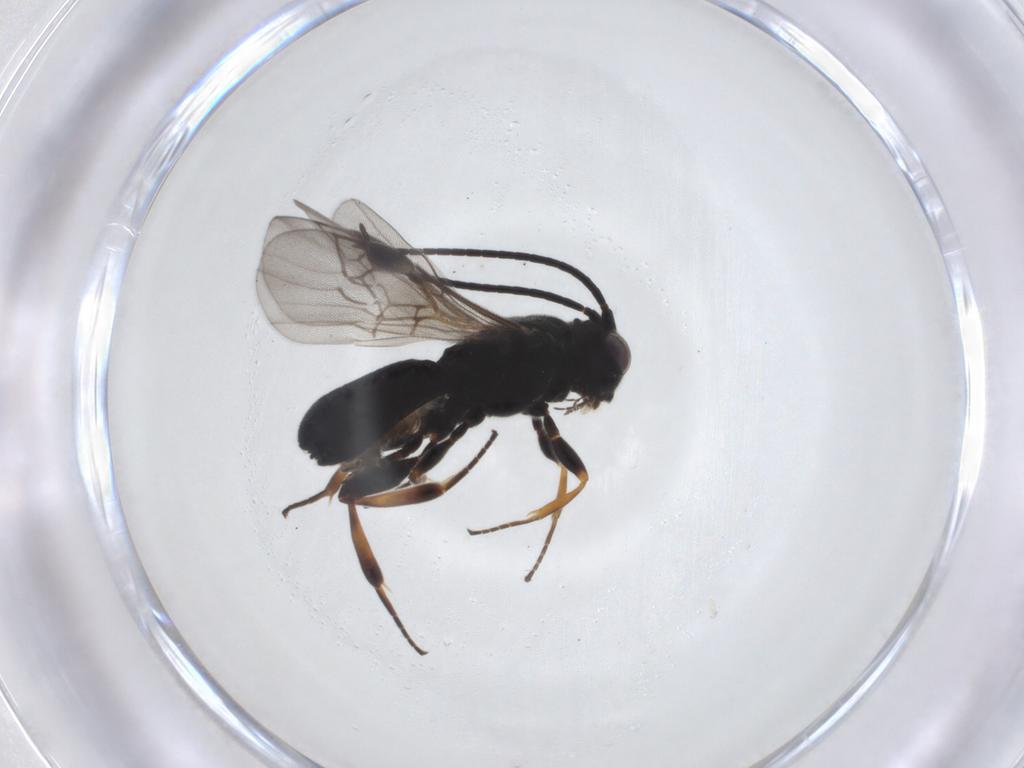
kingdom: Animalia
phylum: Arthropoda
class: Insecta
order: Hymenoptera
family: Braconidae
